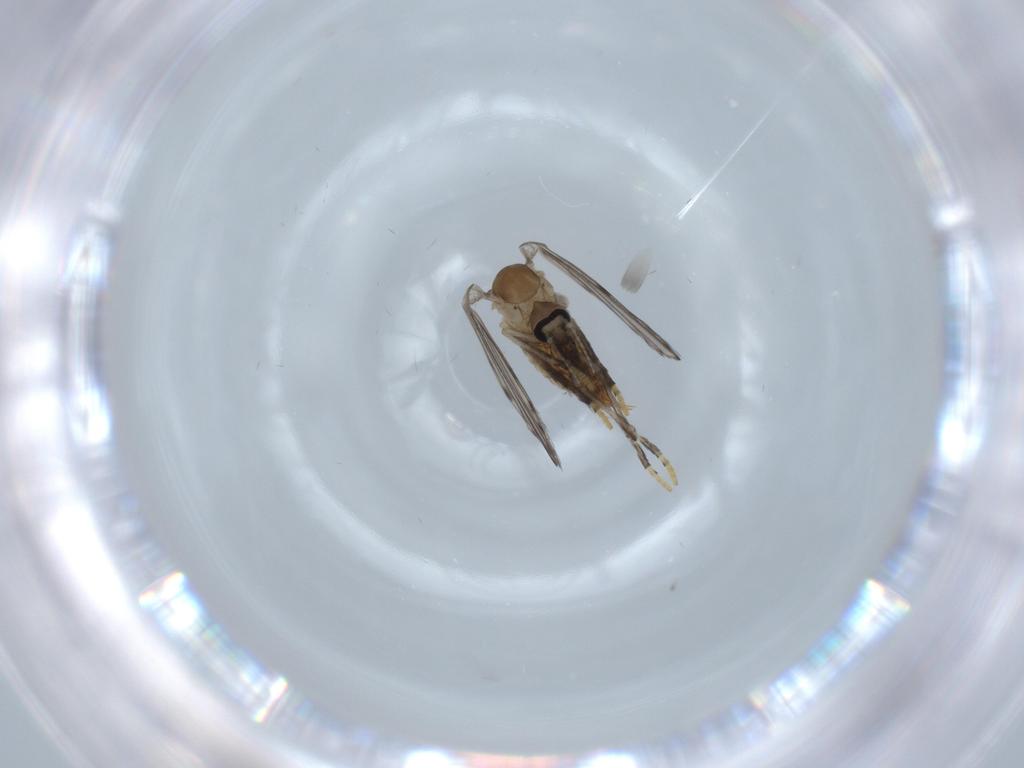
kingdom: Animalia
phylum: Arthropoda
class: Insecta
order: Diptera
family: Psychodidae
